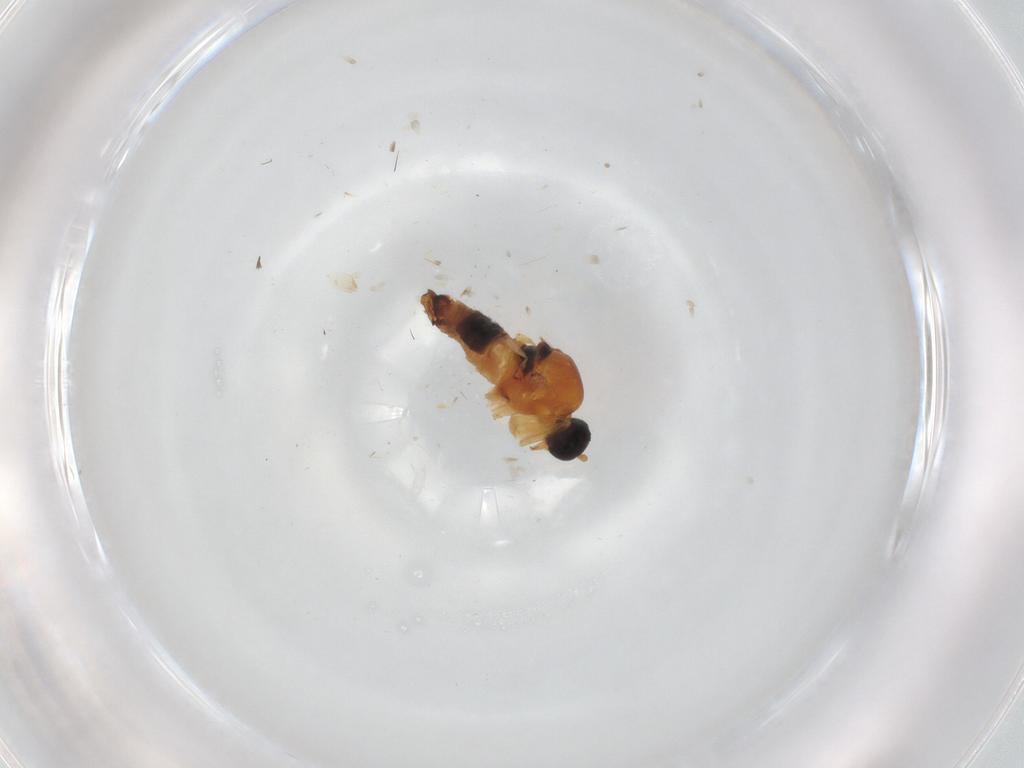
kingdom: Animalia
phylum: Arthropoda
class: Insecta
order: Diptera
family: Hybotidae
